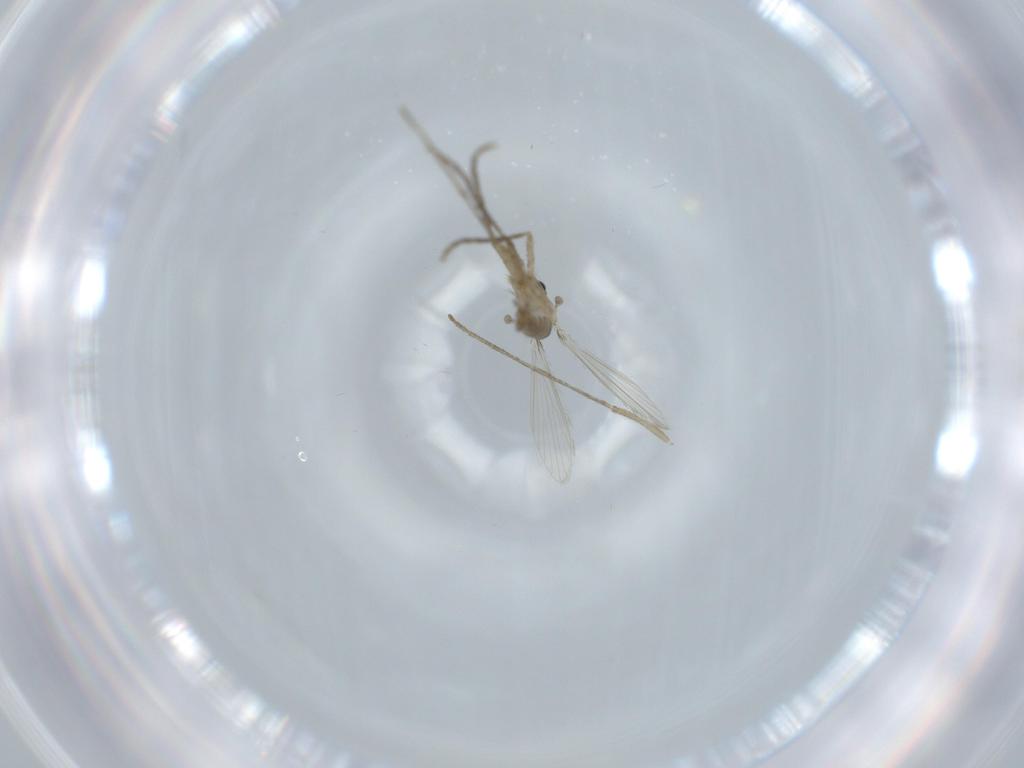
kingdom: Animalia
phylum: Arthropoda
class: Insecta
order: Diptera
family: Psychodidae
